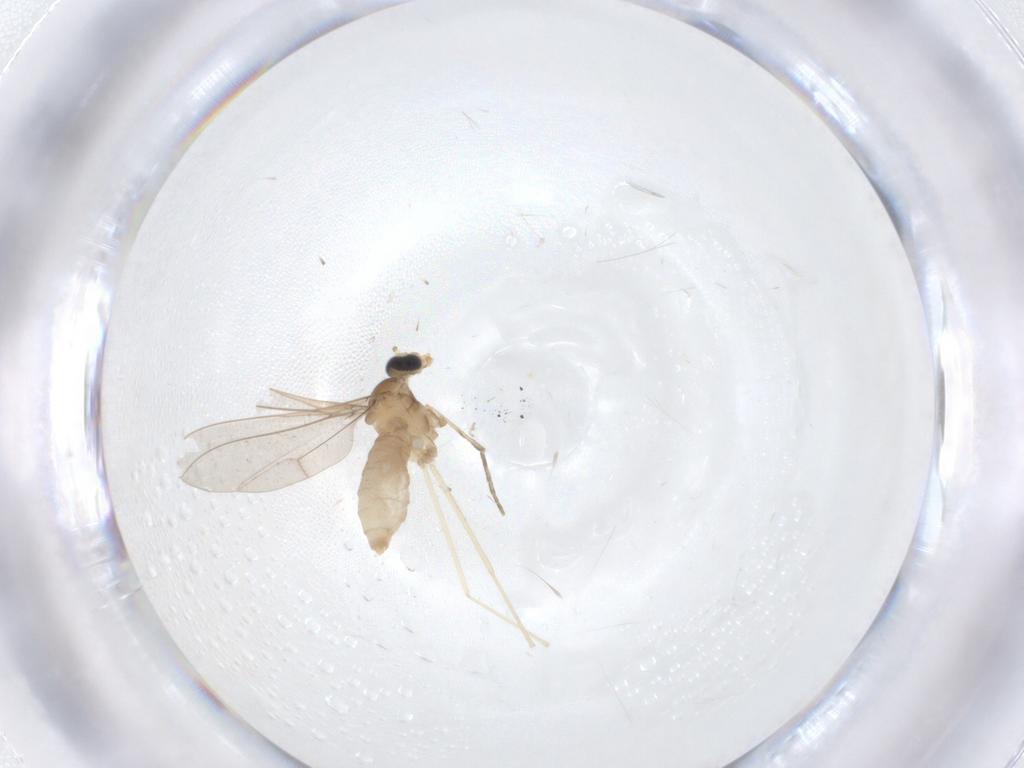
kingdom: Animalia
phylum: Arthropoda
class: Insecta
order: Diptera
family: Cecidomyiidae
